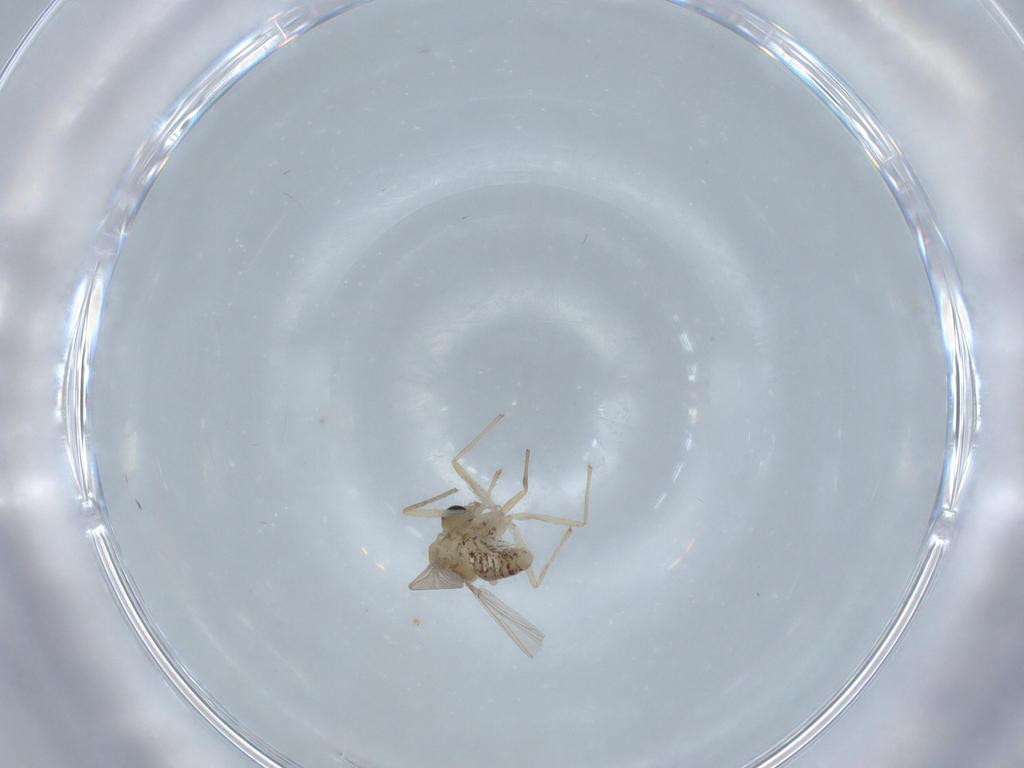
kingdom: Animalia
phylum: Arthropoda
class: Insecta
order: Diptera
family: Chironomidae
